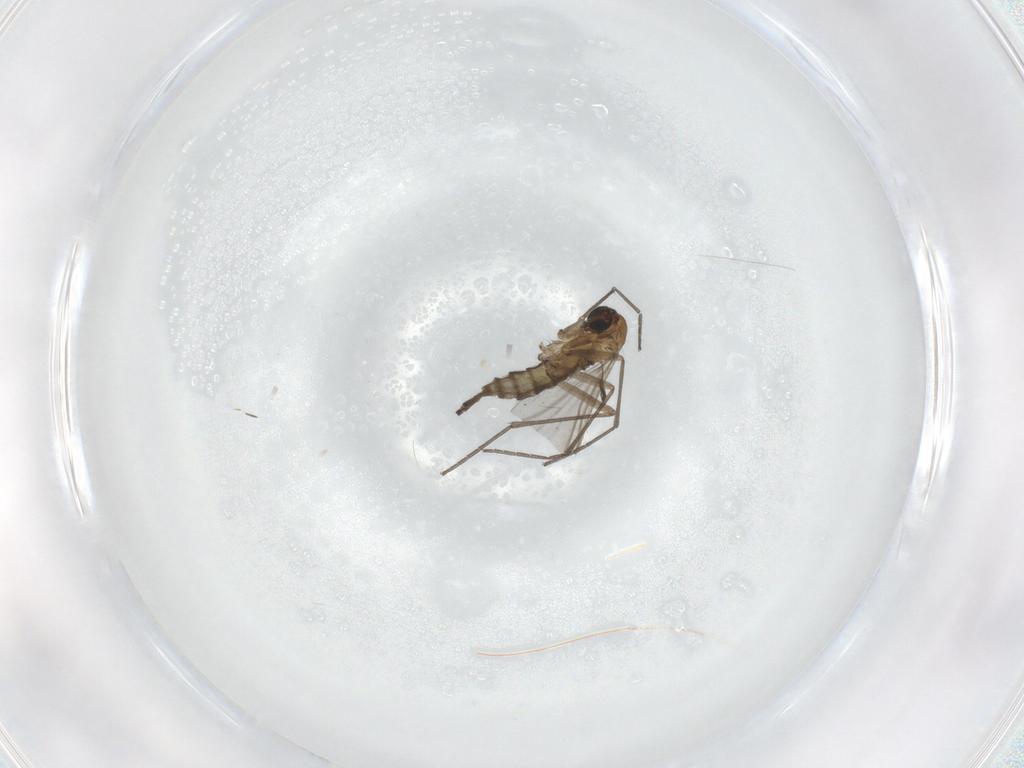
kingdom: Animalia
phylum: Arthropoda
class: Insecta
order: Diptera
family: Sciaridae
